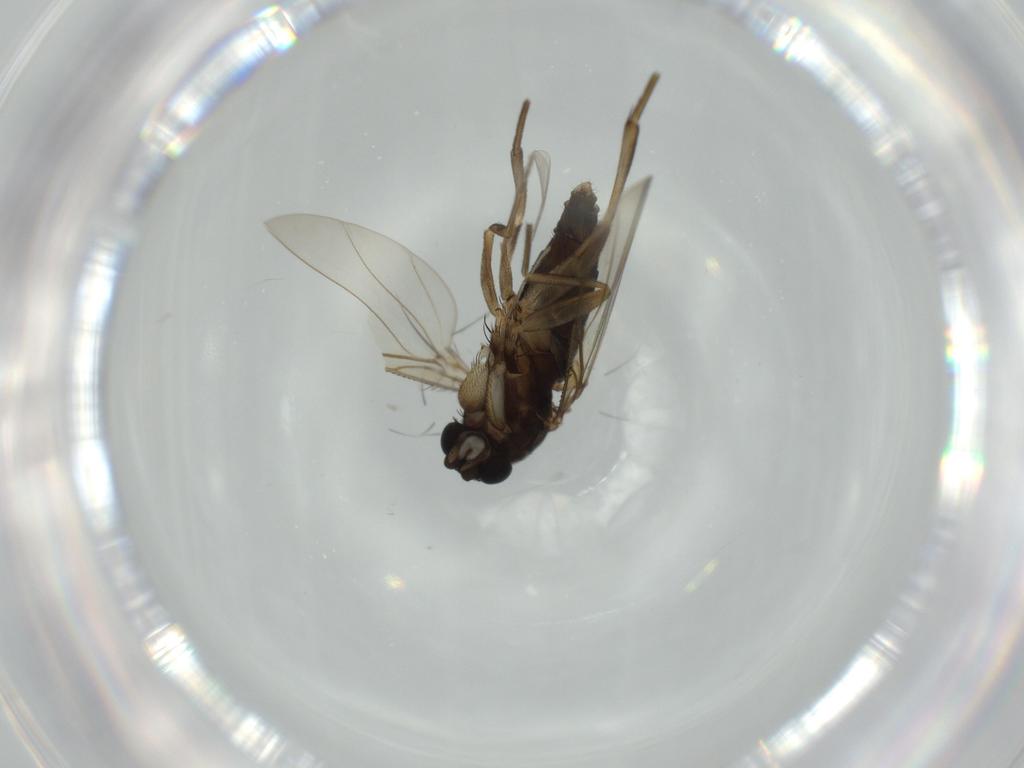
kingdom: Animalia
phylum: Arthropoda
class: Insecta
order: Diptera
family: Phoridae
